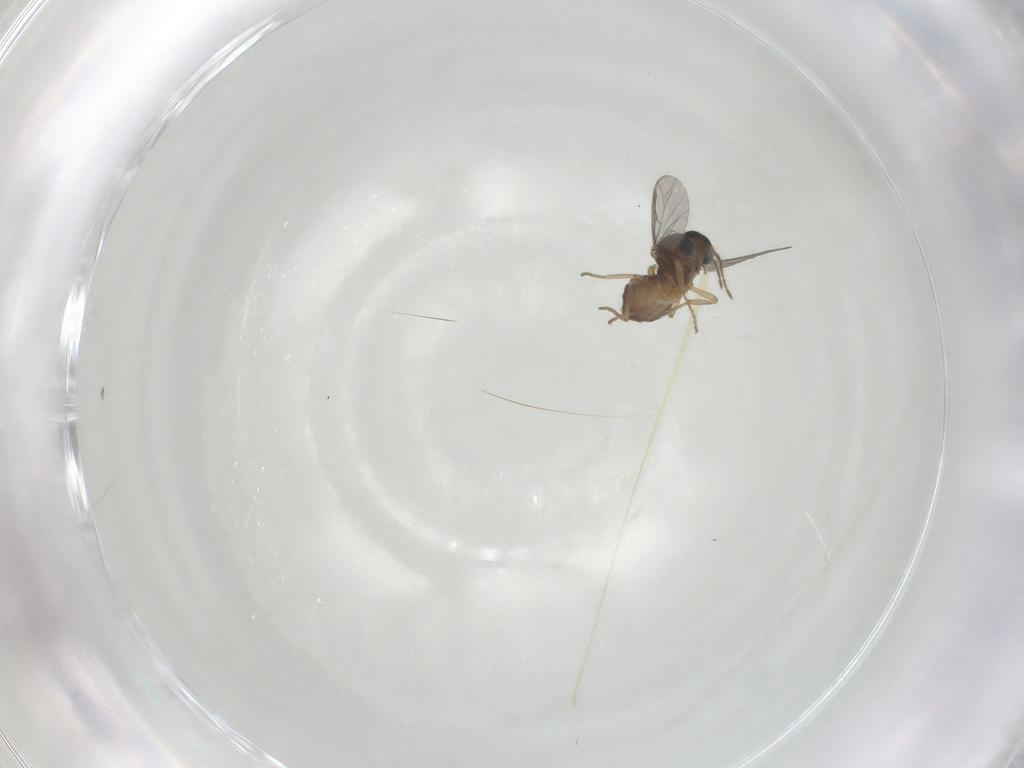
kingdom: Animalia
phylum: Arthropoda
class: Insecta
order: Diptera
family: Ceratopogonidae
